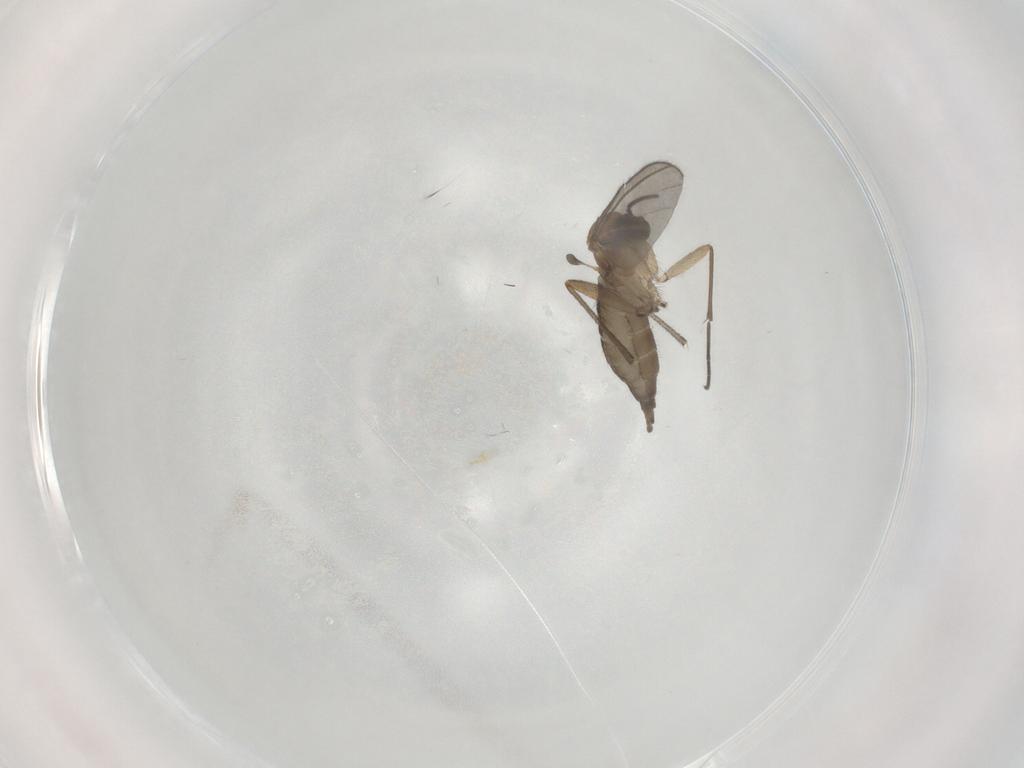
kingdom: Animalia
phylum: Arthropoda
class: Insecta
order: Diptera
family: Sciaridae
